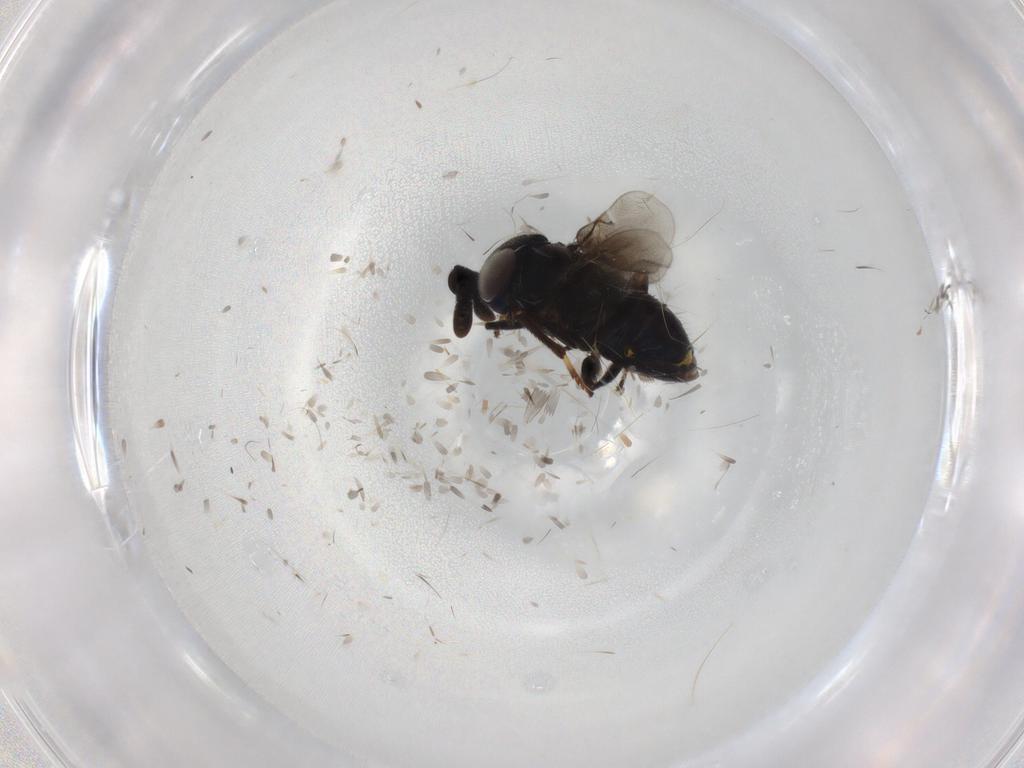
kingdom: Animalia
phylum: Arthropoda
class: Insecta
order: Hymenoptera
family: Encyrtidae
